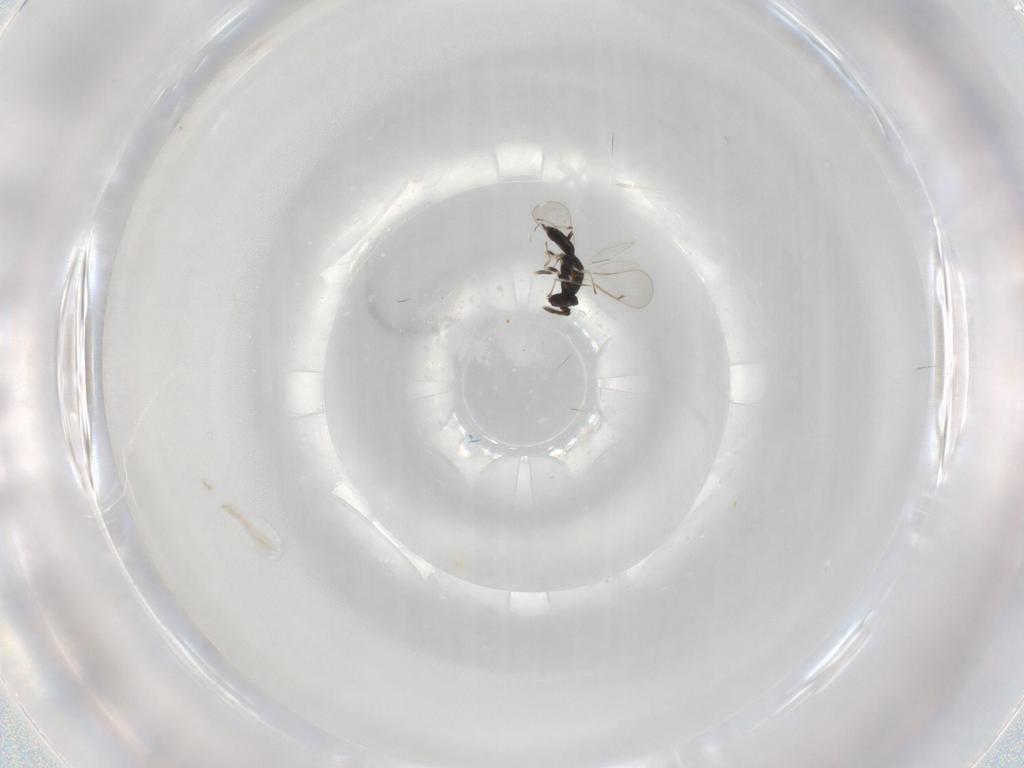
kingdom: Animalia
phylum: Arthropoda
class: Insecta
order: Hymenoptera
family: Eulophidae
